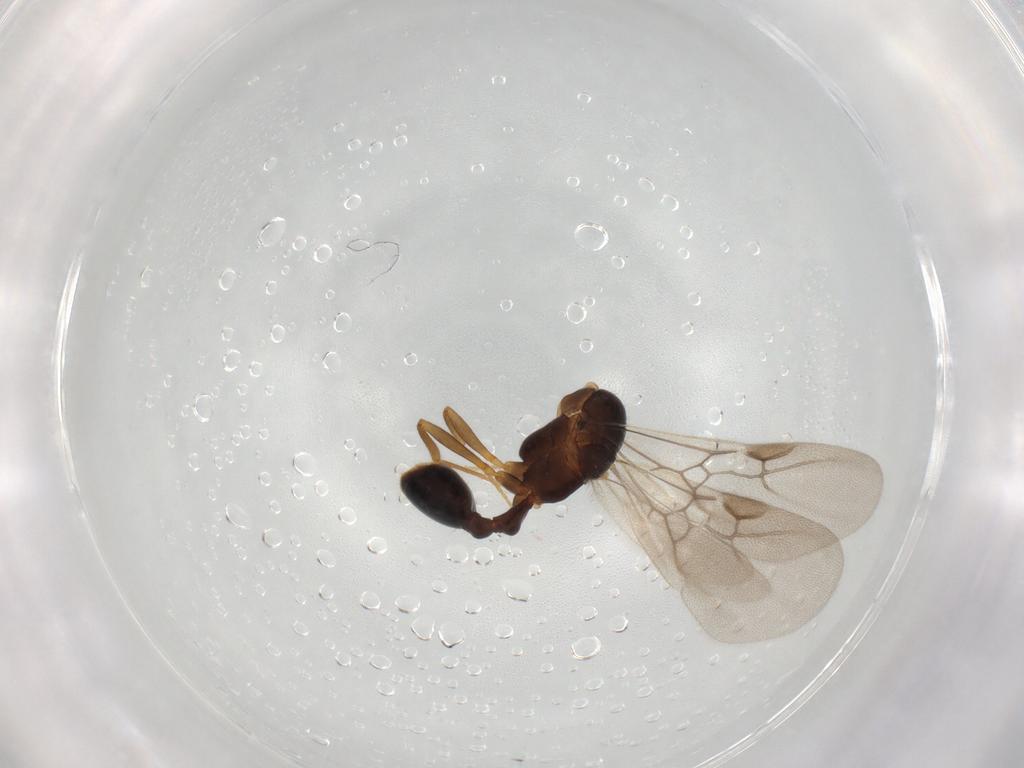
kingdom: Animalia
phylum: Arthropoda
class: Insecta
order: Hymenoptera
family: Formicidae
